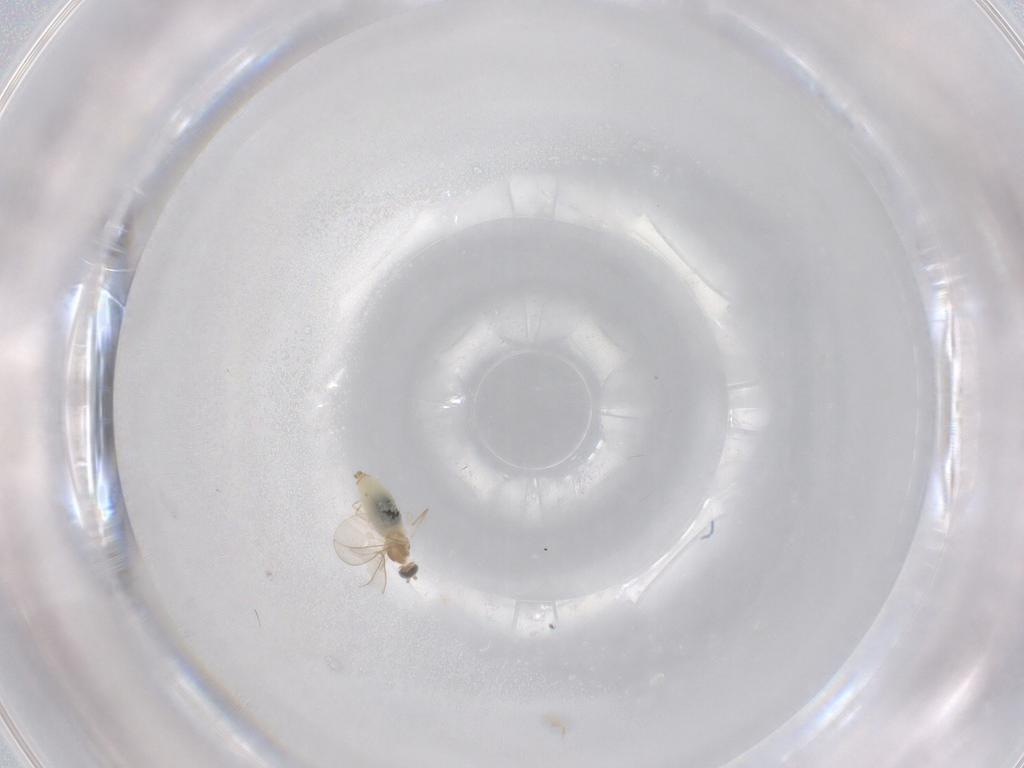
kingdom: Animalia
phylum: Arthropoda
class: Insecta
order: Diptera
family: Cecidomyiidae
